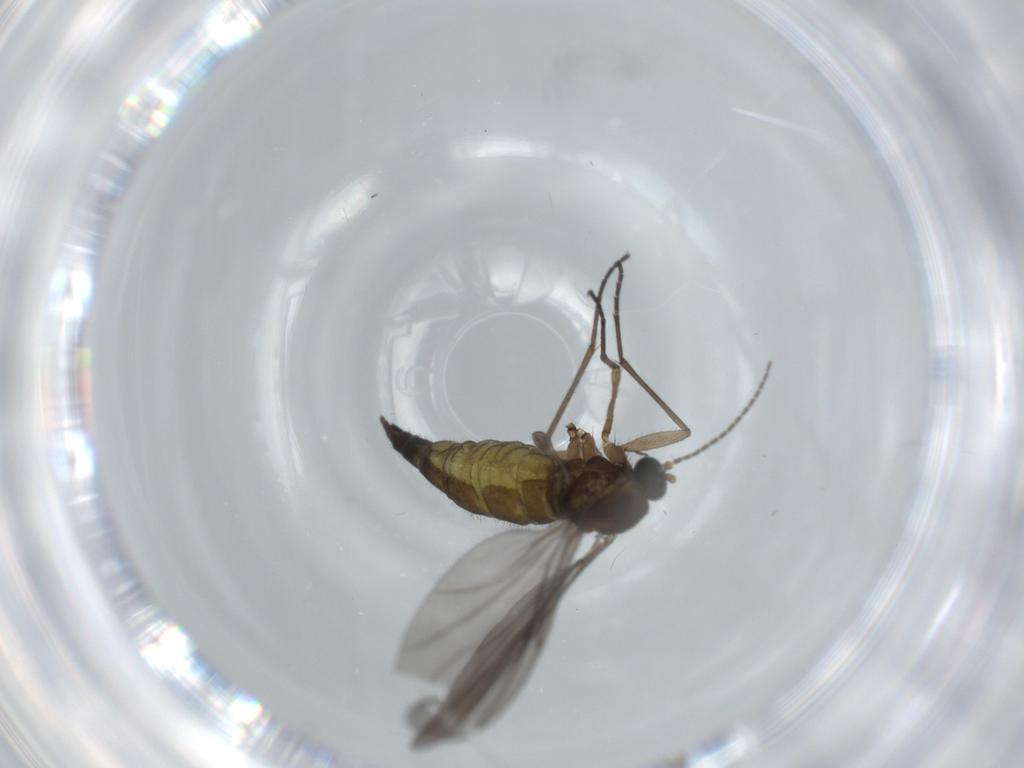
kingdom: Animalia
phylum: Arthropoda
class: Insecta
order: Diptera
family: Sciaridae
